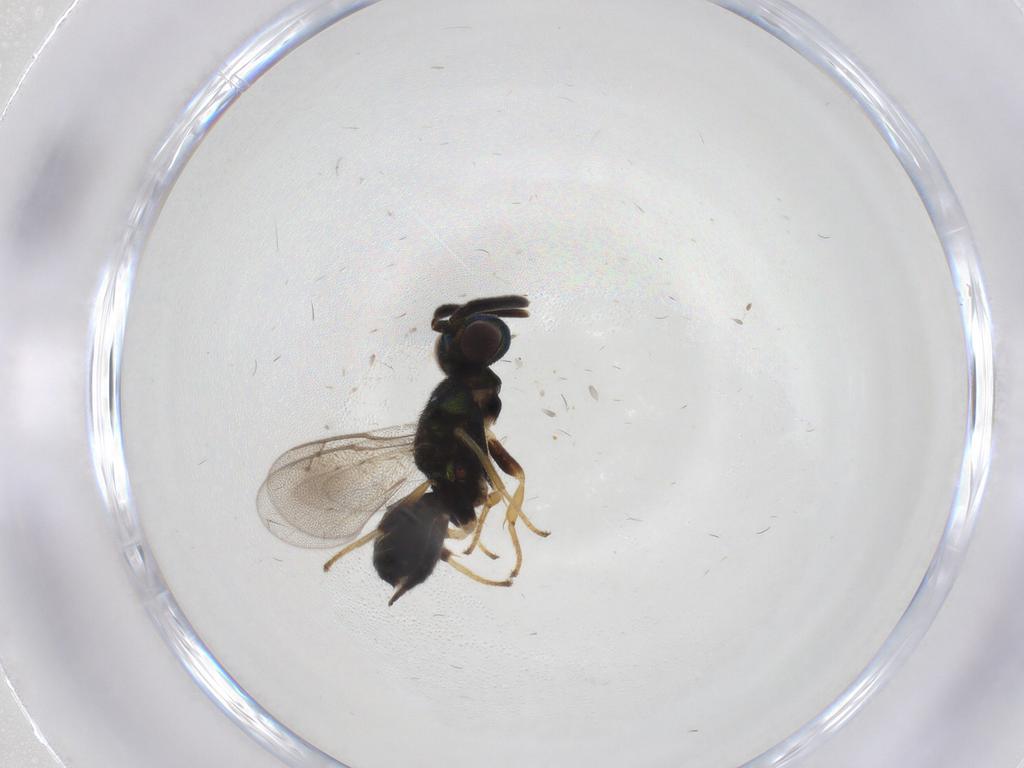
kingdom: Animalia
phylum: Arthropoda
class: Insecta
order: Hymenoptera
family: Eupelmidae
